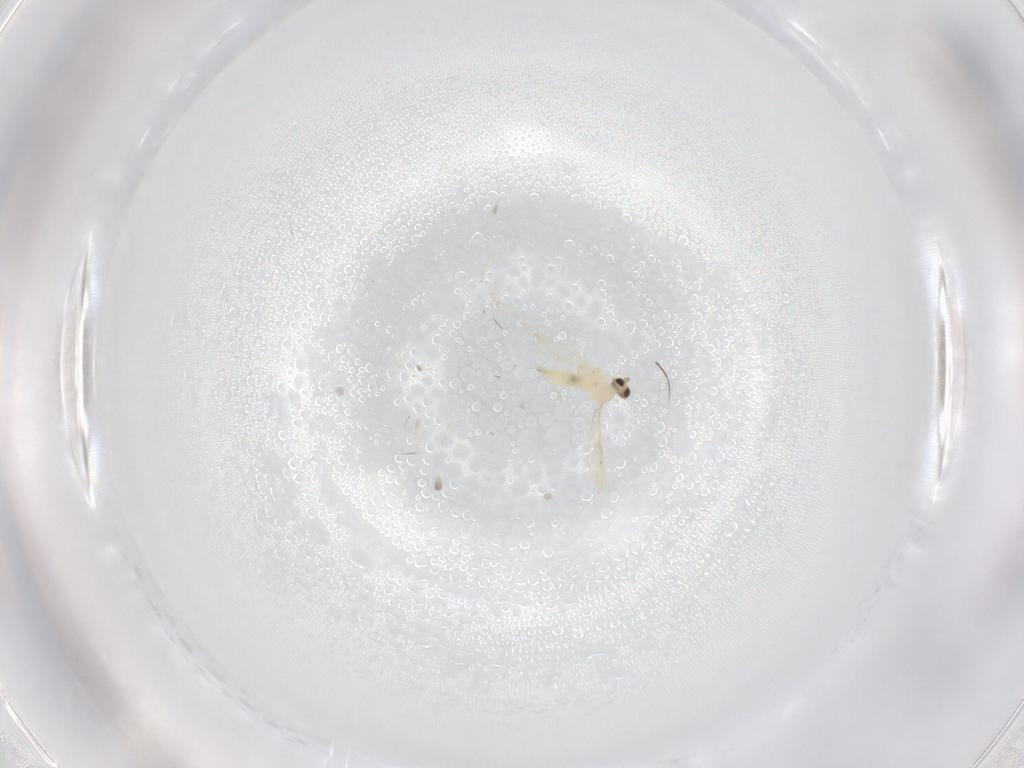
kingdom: Animalia
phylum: Arthropoda
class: Insecta
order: Diptera
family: Cecidomyiidae
